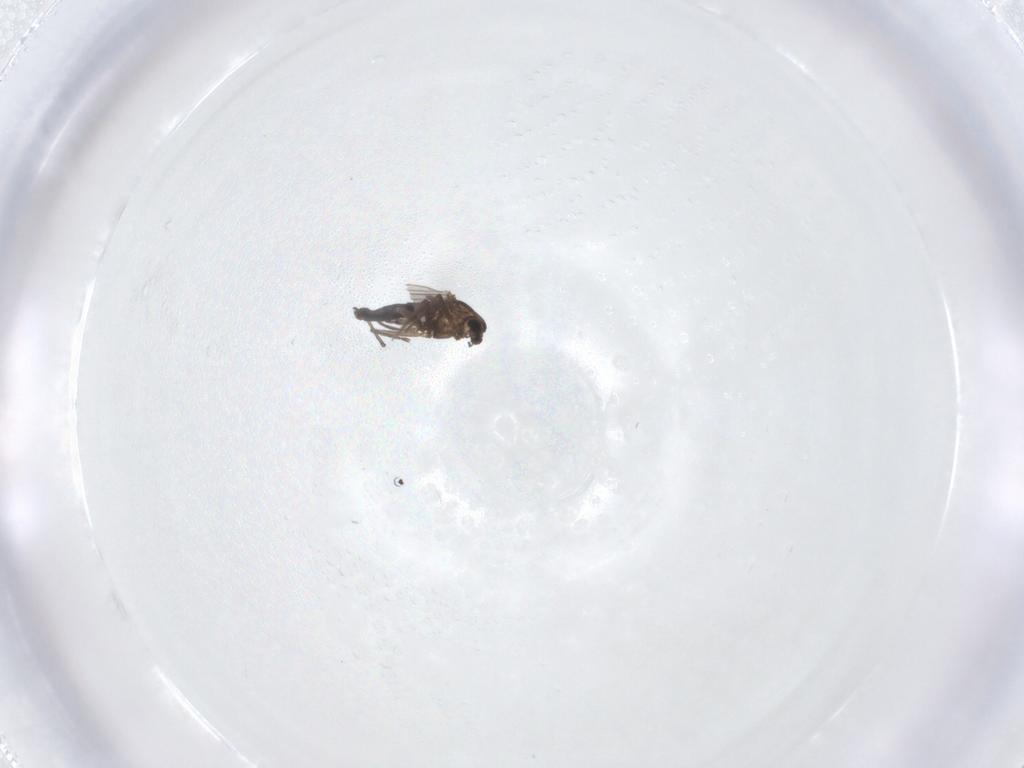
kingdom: Animalia
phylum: Arthropoda
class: Insecta
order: Diptera
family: Chironomidae
